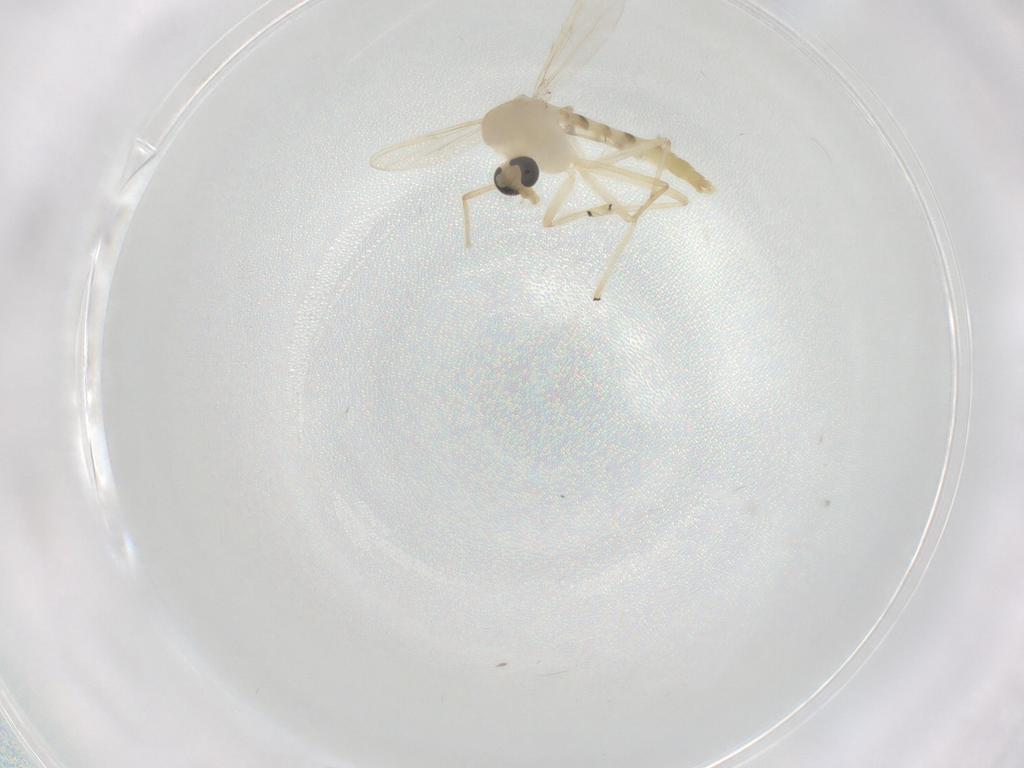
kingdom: Animalia
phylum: Arthropoda
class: Insecta
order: Diptera
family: Chironomidae
